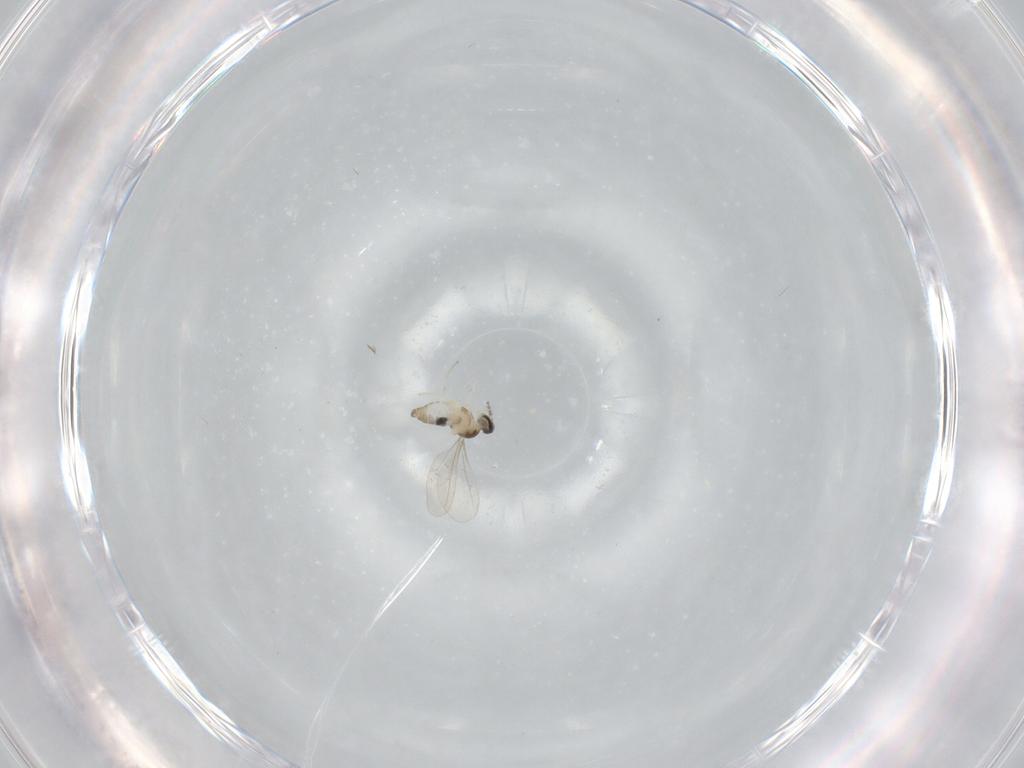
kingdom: Animalia
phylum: Arthropoda
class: Insecta
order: Diptera
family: Cecidomyiidae
